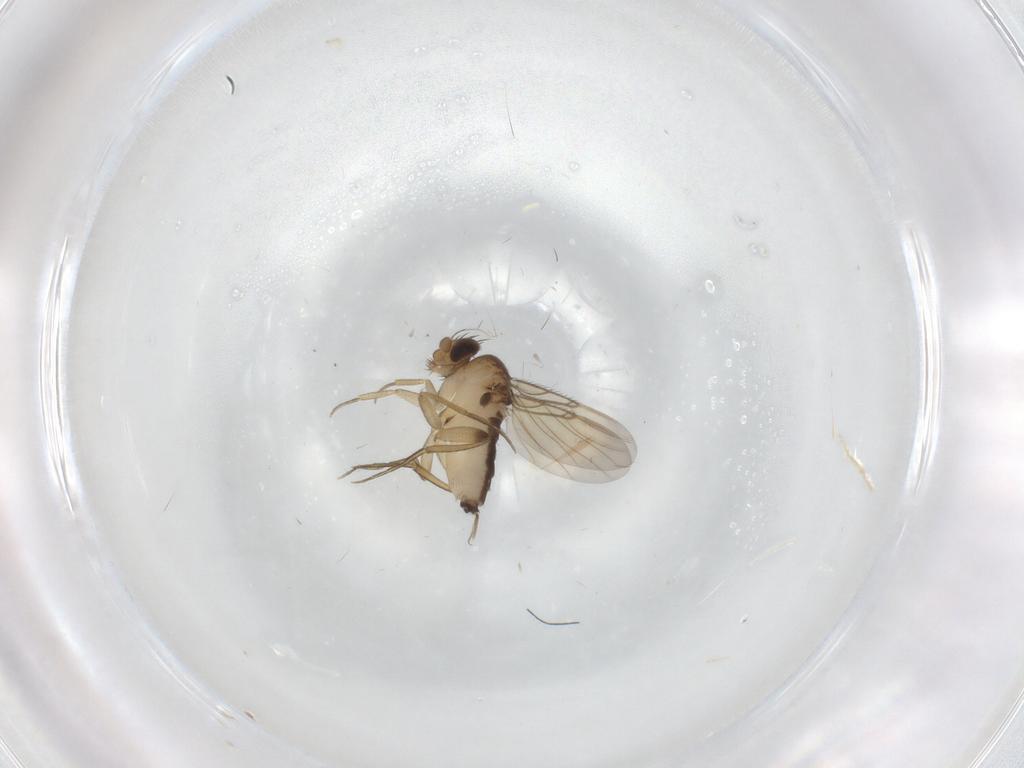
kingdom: Animalia
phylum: Arthropoda
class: Insecta
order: Diptera
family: Phoridae
